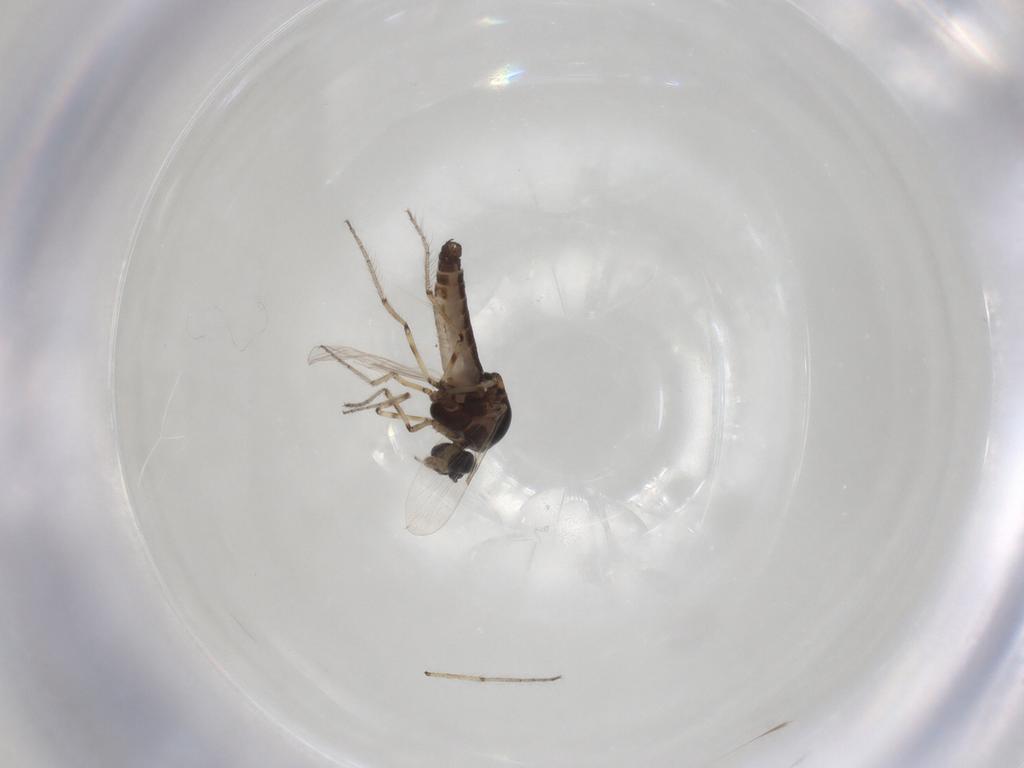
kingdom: Animalia
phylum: Arthropoda
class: Insecta
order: Diptera
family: Ceratopogonidae
